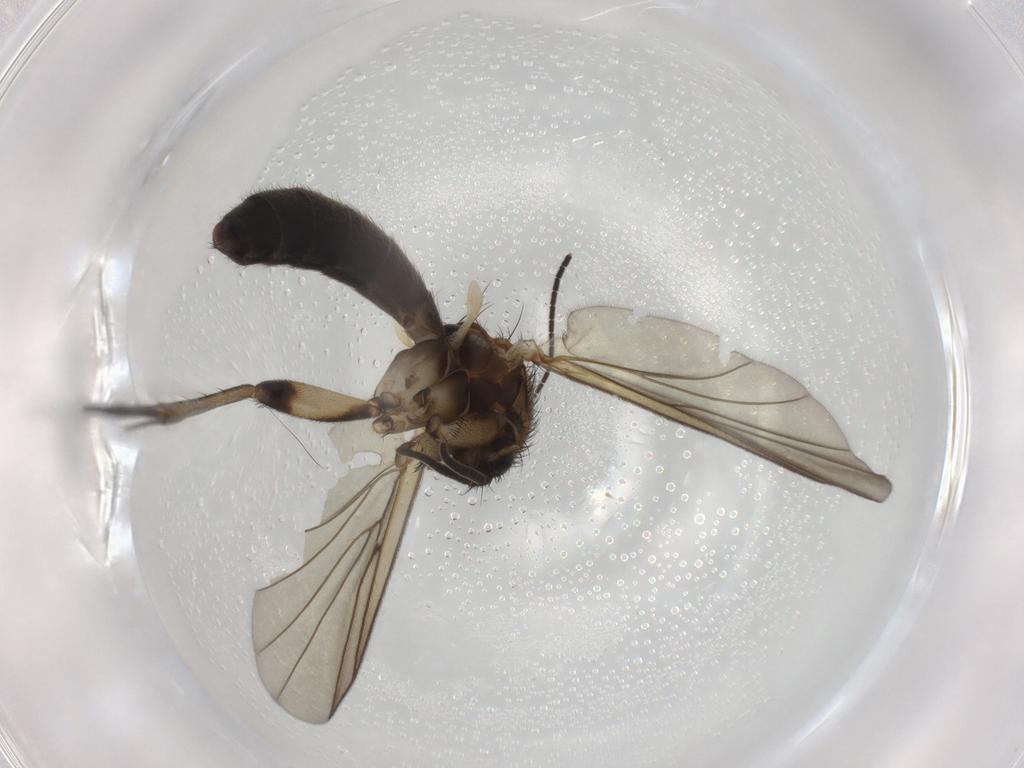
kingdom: Animalia
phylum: Arthropoda
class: Insecta
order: Diptera
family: Mycetophilidae
